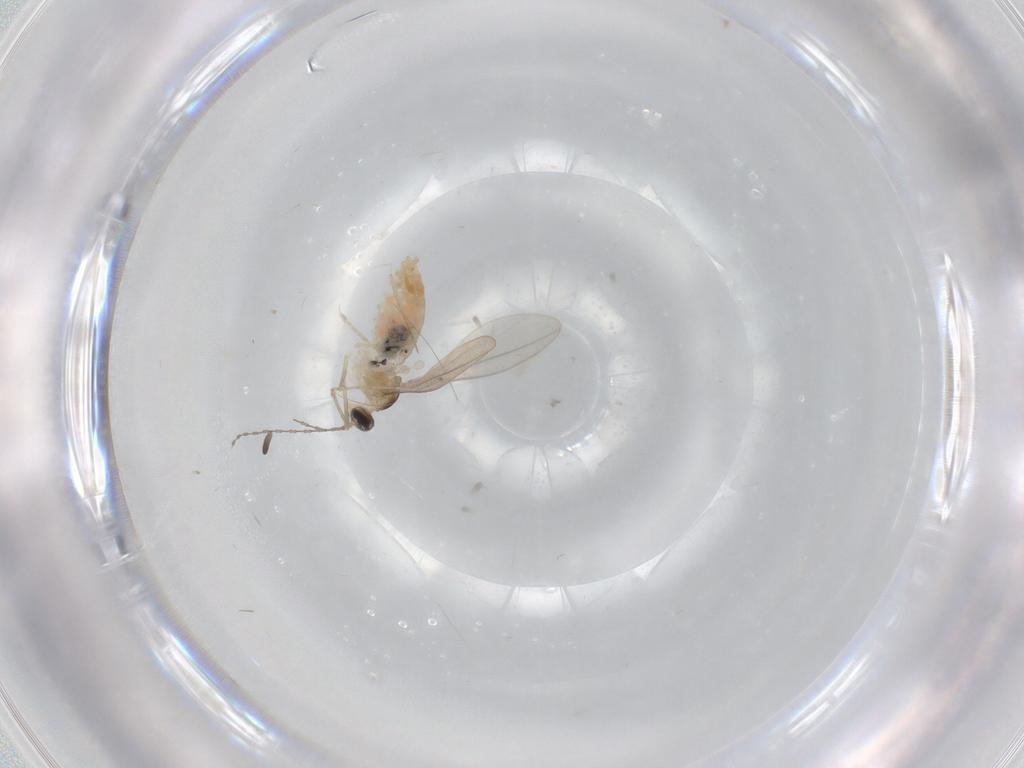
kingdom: Animalia
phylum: Arthropoda
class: Insecta
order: Diptera
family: Drosophilidae
